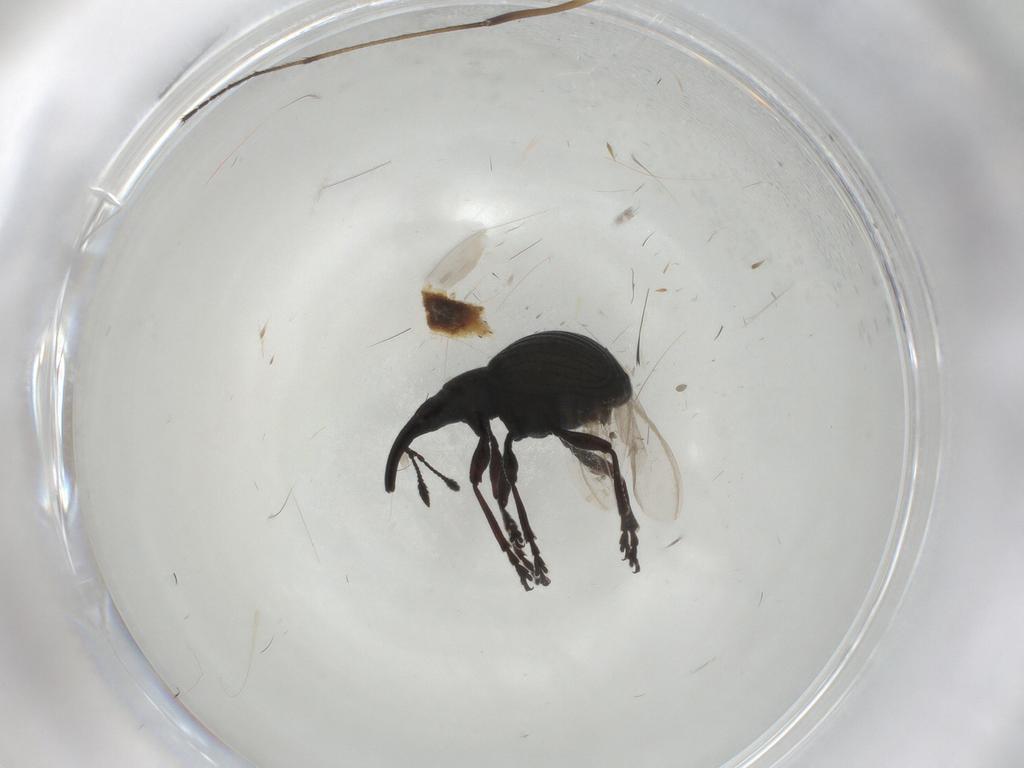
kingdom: Animalia
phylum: Arthropoda
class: Insecta
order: Coleoptera
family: Brentidae
